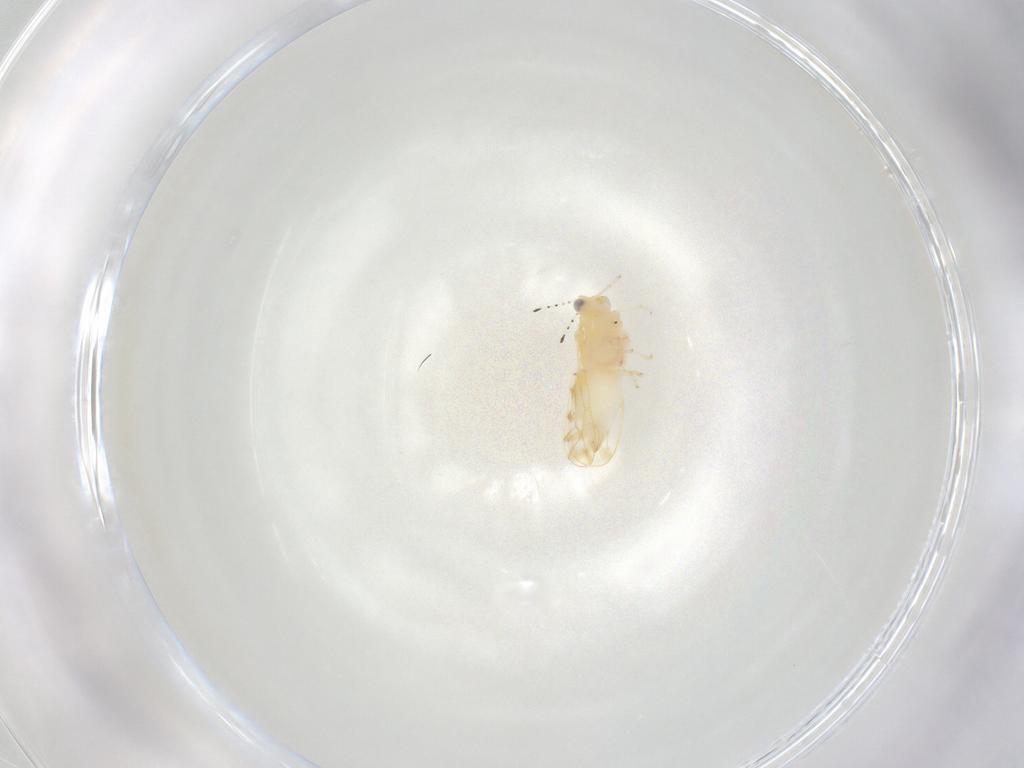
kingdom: Animalia
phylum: Arthropoda
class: Insecta
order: Hemiptera
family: Aphalaridae
